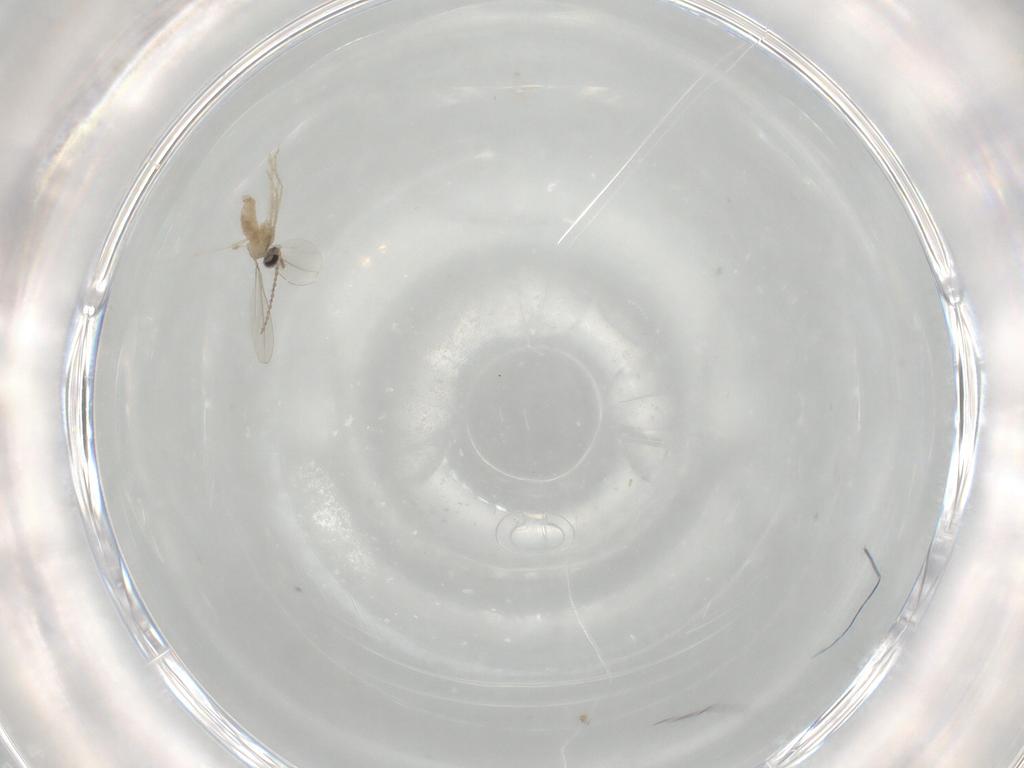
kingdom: Animalia
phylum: Arthropoda
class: Insecta
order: Diptera
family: Cecidomyiidae
